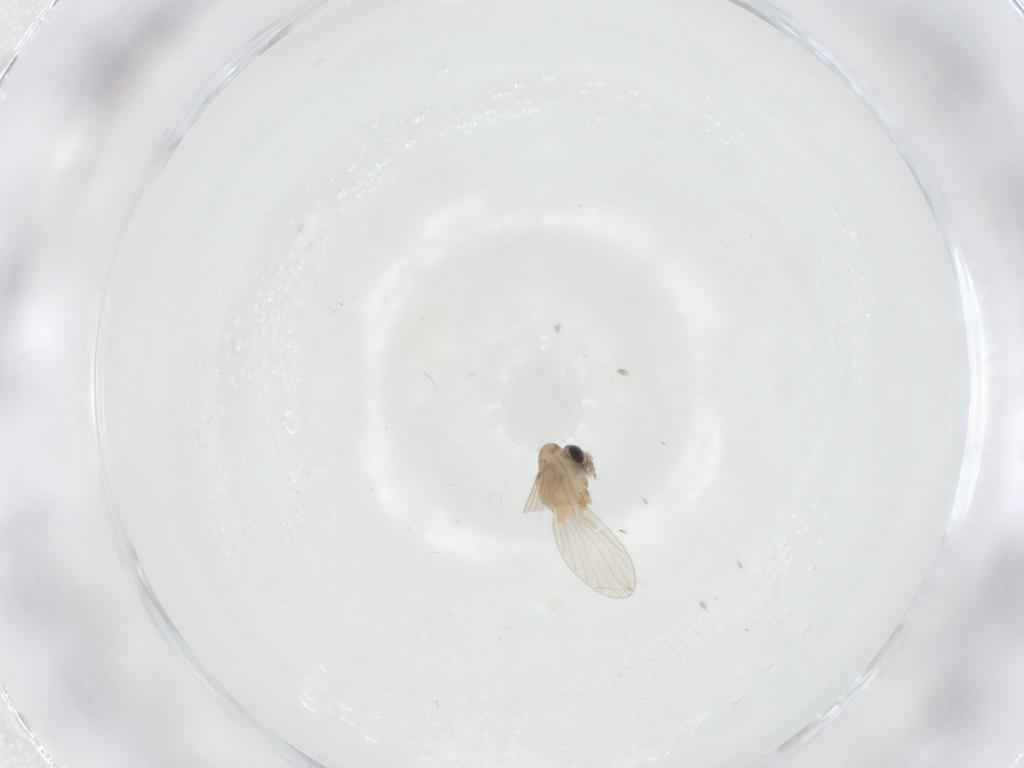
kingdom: Animalia
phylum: Arthropoda
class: Insecta
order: Diptera
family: Psychodidae
